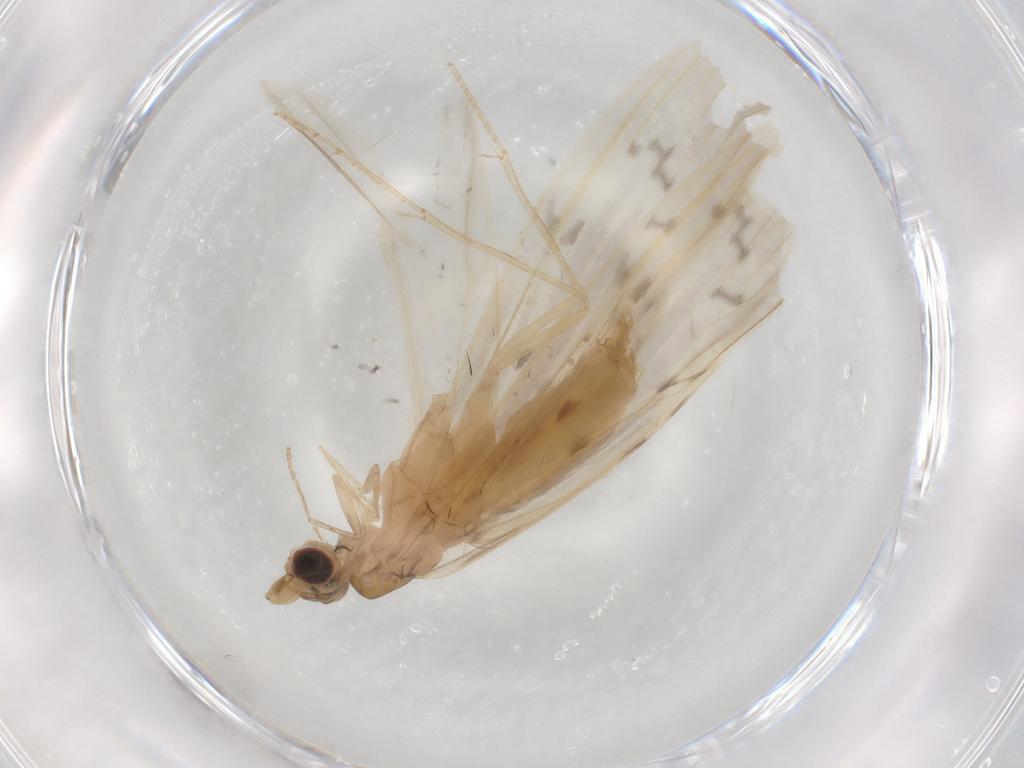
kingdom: Animalia
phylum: Arthropoda
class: Insecta
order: Trichoptera
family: Leptoceridae
